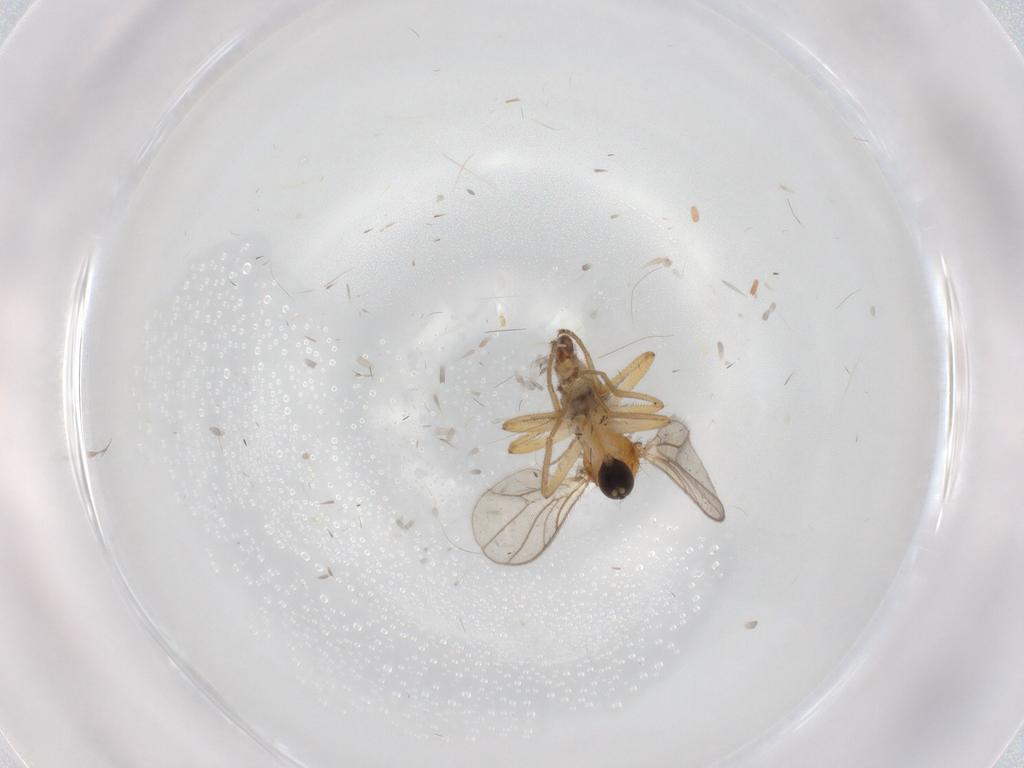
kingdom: Animalia
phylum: Arthropoda
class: Insecta
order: Diptera
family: Hybotidae
